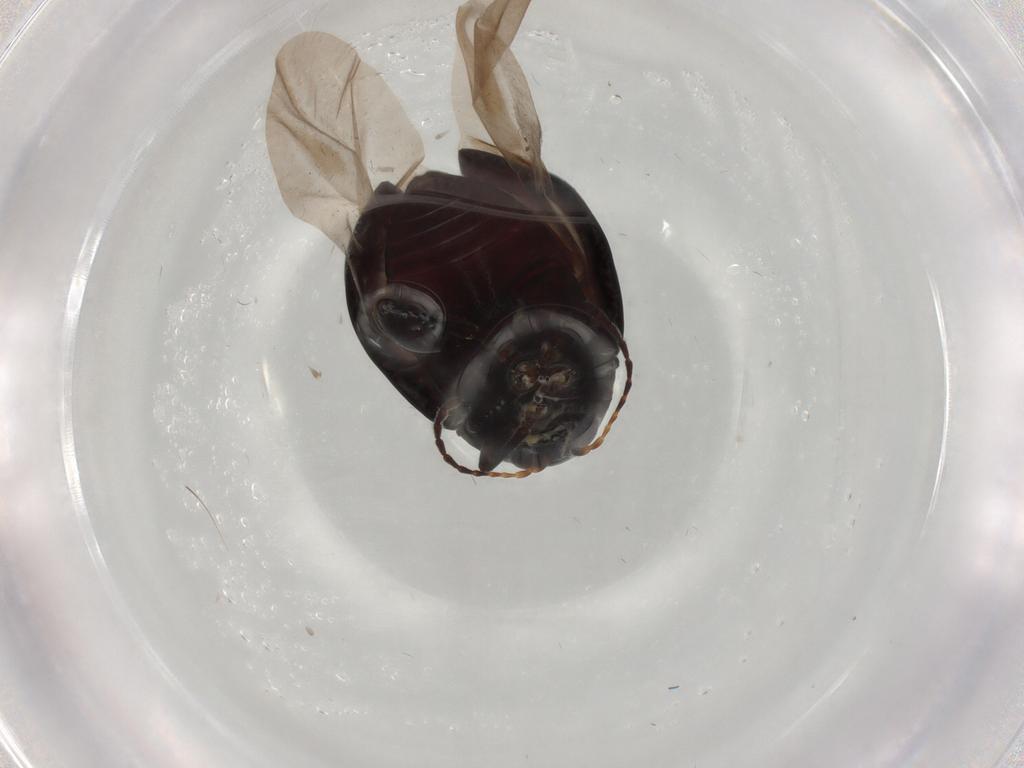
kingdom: Animalia
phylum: Arthropoda
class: Insecta
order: Coleoptera
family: Chrysomelidae
